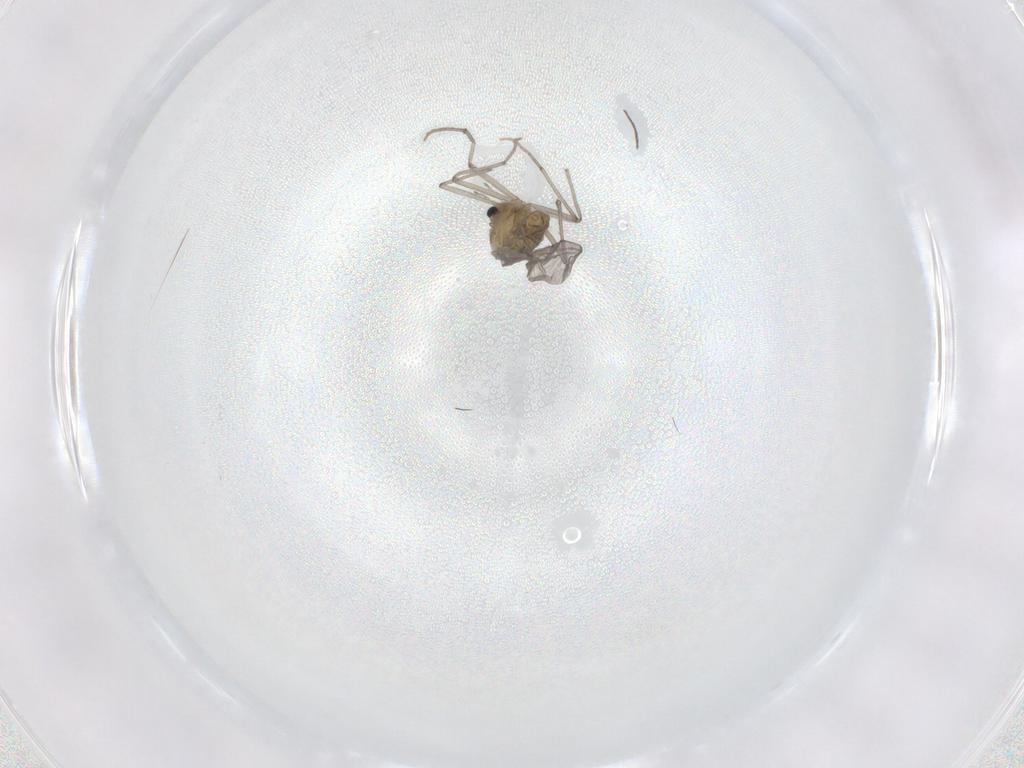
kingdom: Animalia
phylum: Arthropoda
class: Insecta
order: Diptera
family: Chironomidae
